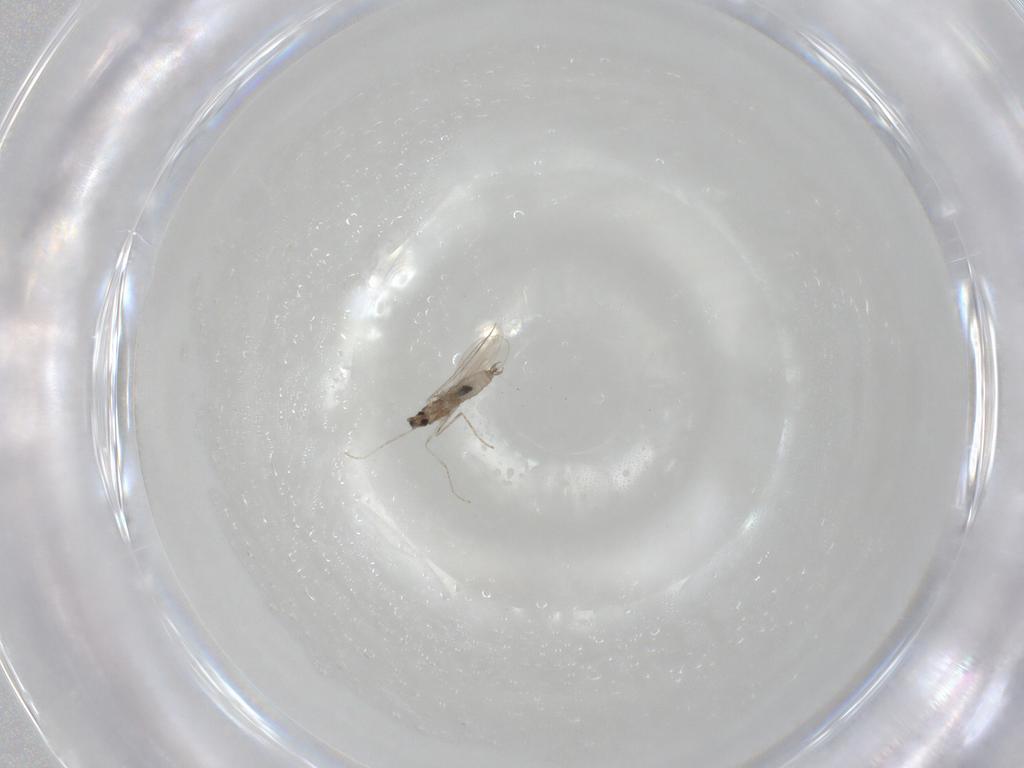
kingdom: Animalia
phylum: Arthropoda
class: Insecta
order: Diptera
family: Cecidomyiidae
